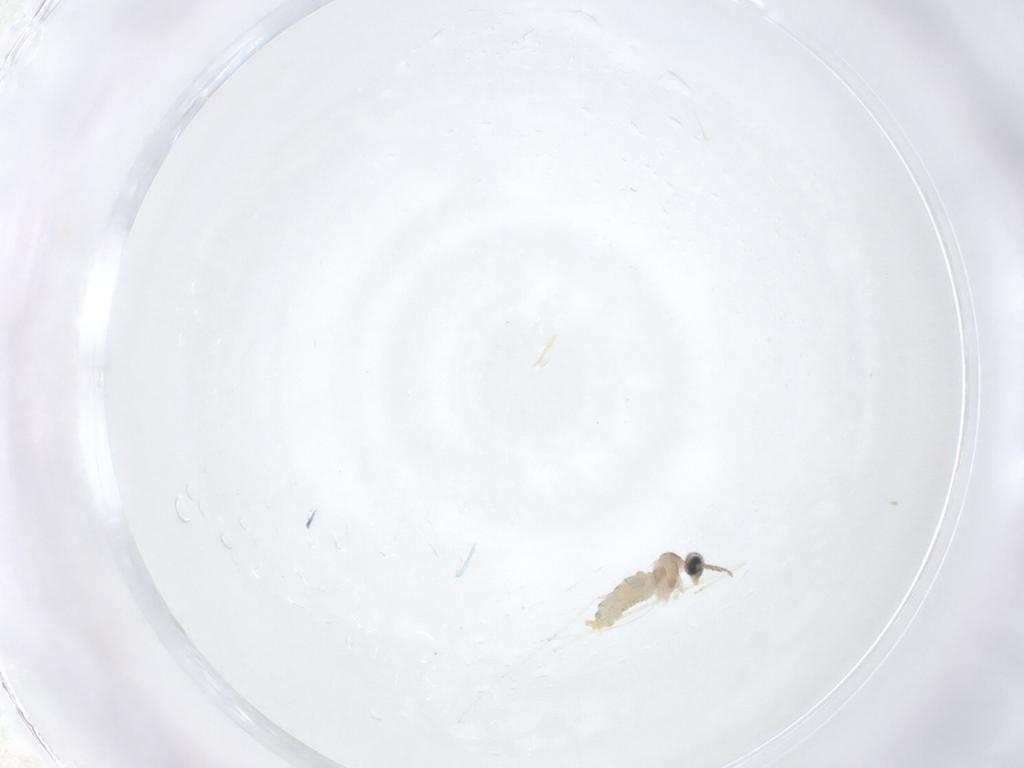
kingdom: Animalia
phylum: Arthropoda
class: Insecta
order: Diptera
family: Cecidomyiidae
